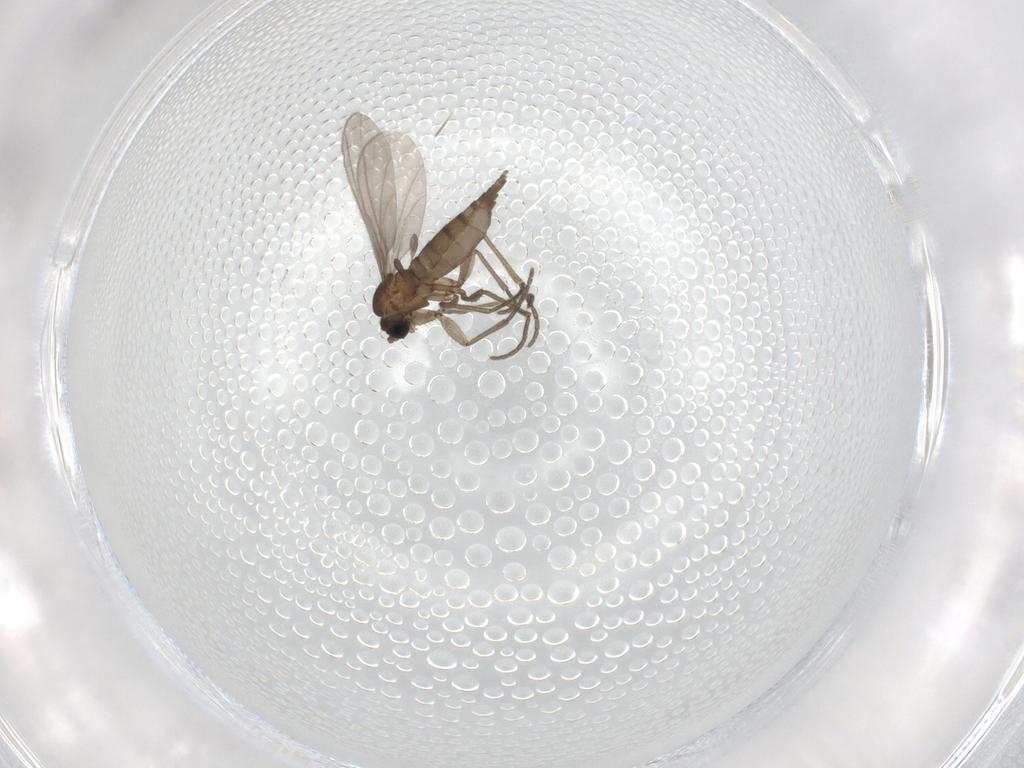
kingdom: Animalia
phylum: Arthropoda
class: Insecta
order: Diptera
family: Sciaridae
